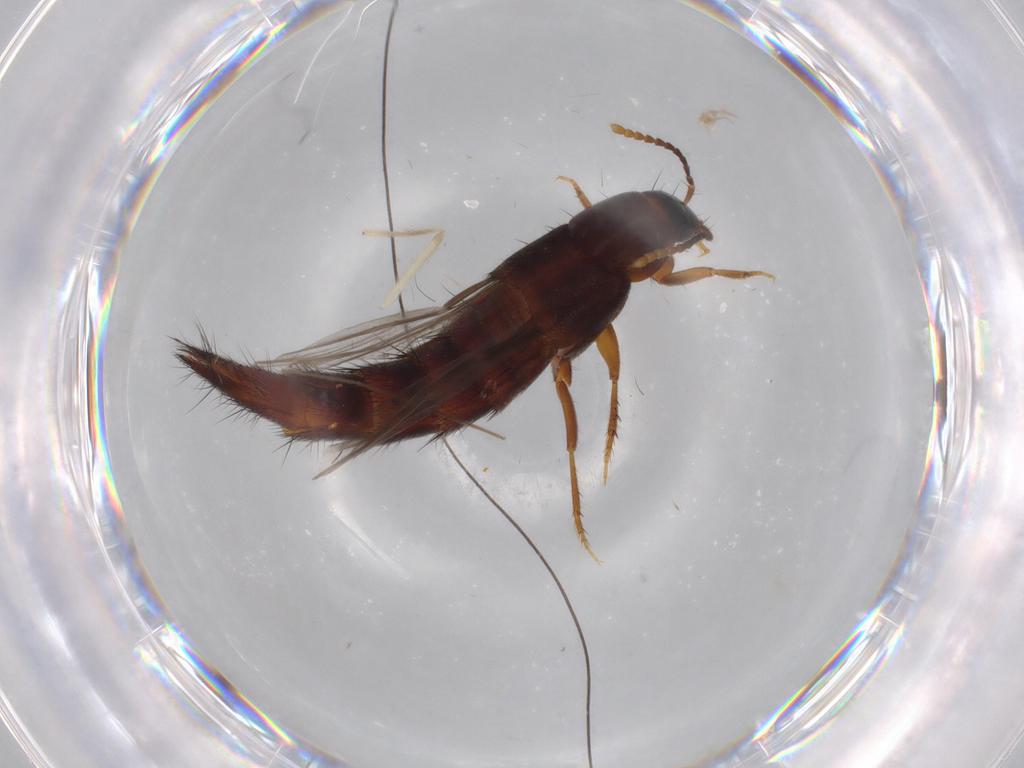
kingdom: Animalia
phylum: Arthropoda
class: Insecta
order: Coleoptera
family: Staphylinidae
